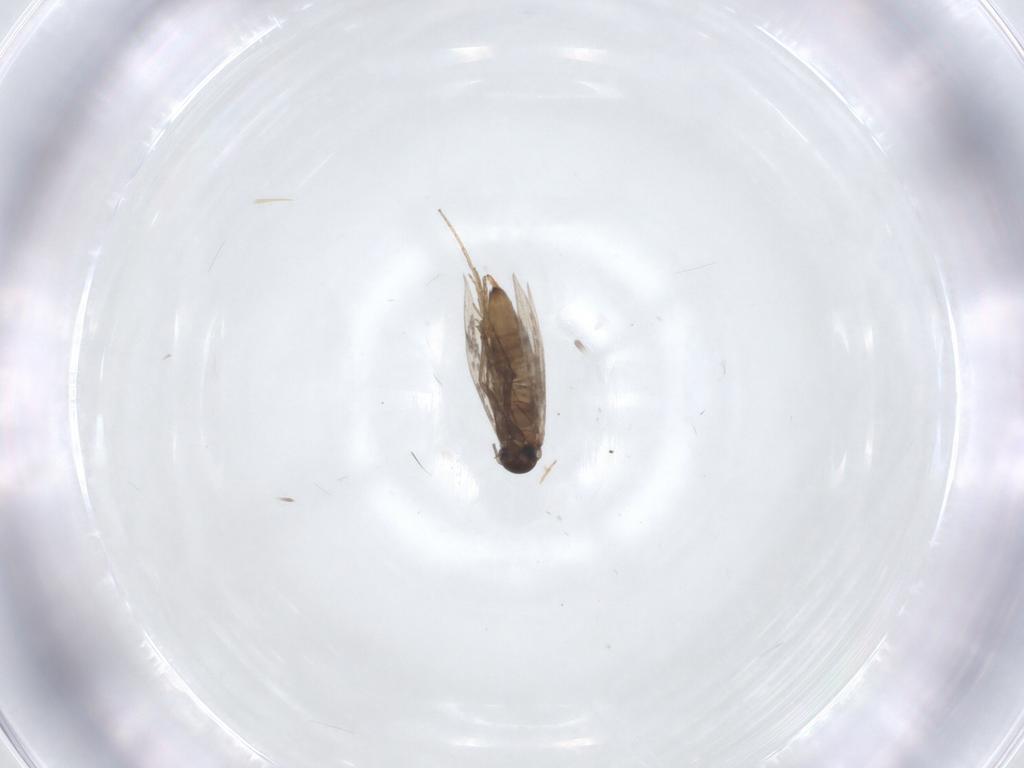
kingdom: Animalia
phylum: Arthropoda
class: Insecta
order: Lepidoptera
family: Heliozelidae
